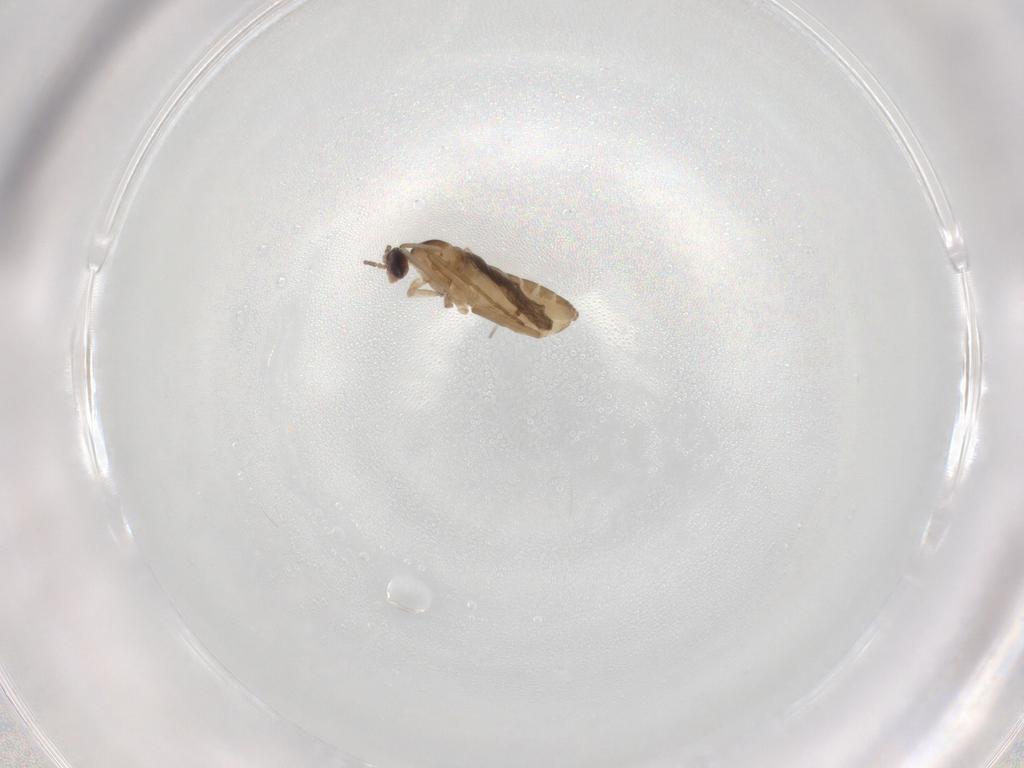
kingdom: Animalia
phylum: Arthropoda
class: Insecta
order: Diptera
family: Cecidomyiidae
